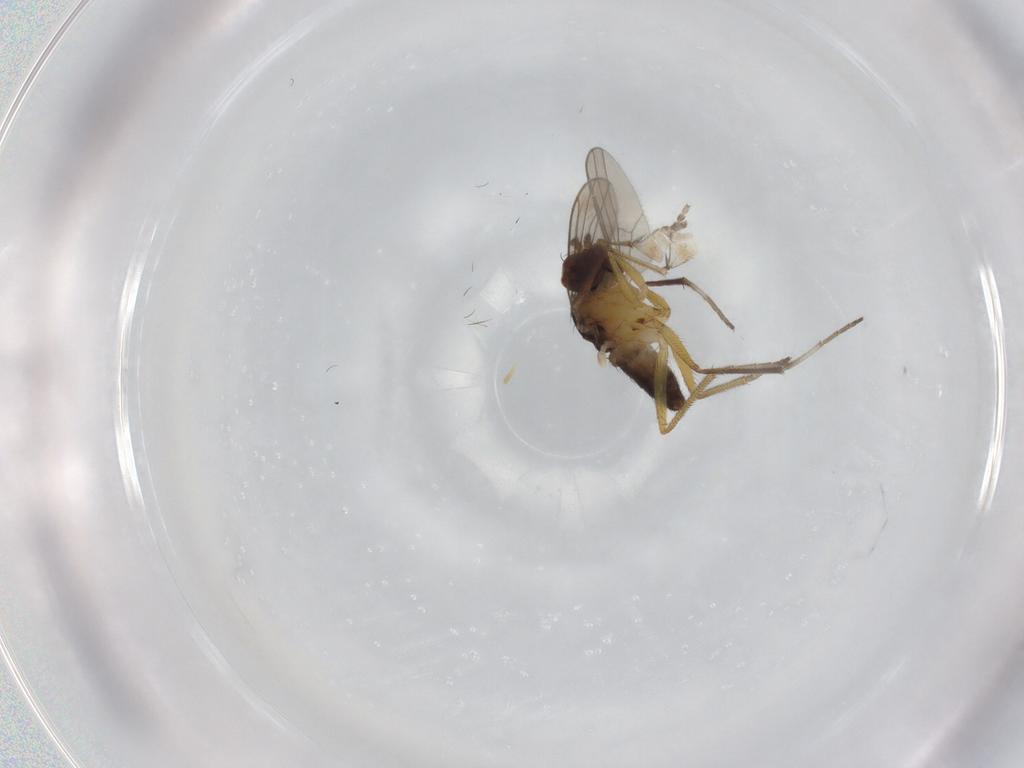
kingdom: Animalia
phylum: Arthropoda
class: Insecta
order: Diptera
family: Dolichopodidae
